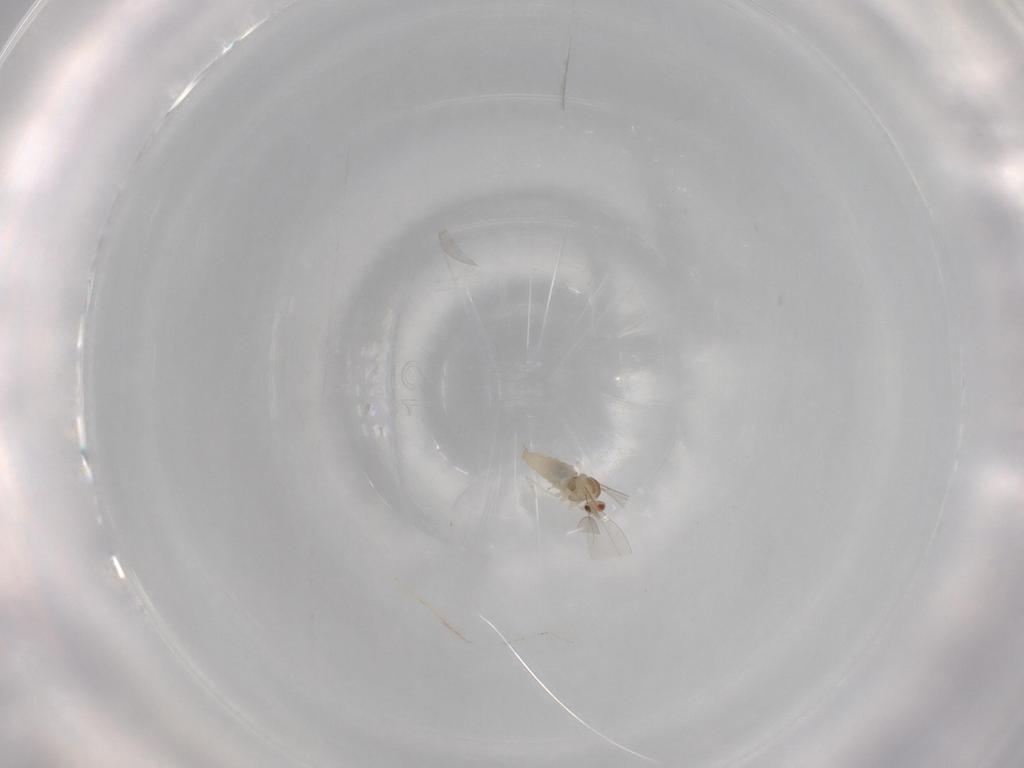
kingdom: Animalia
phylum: Arthropoda
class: Insecta
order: Diptera
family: Cecidomyiidae
